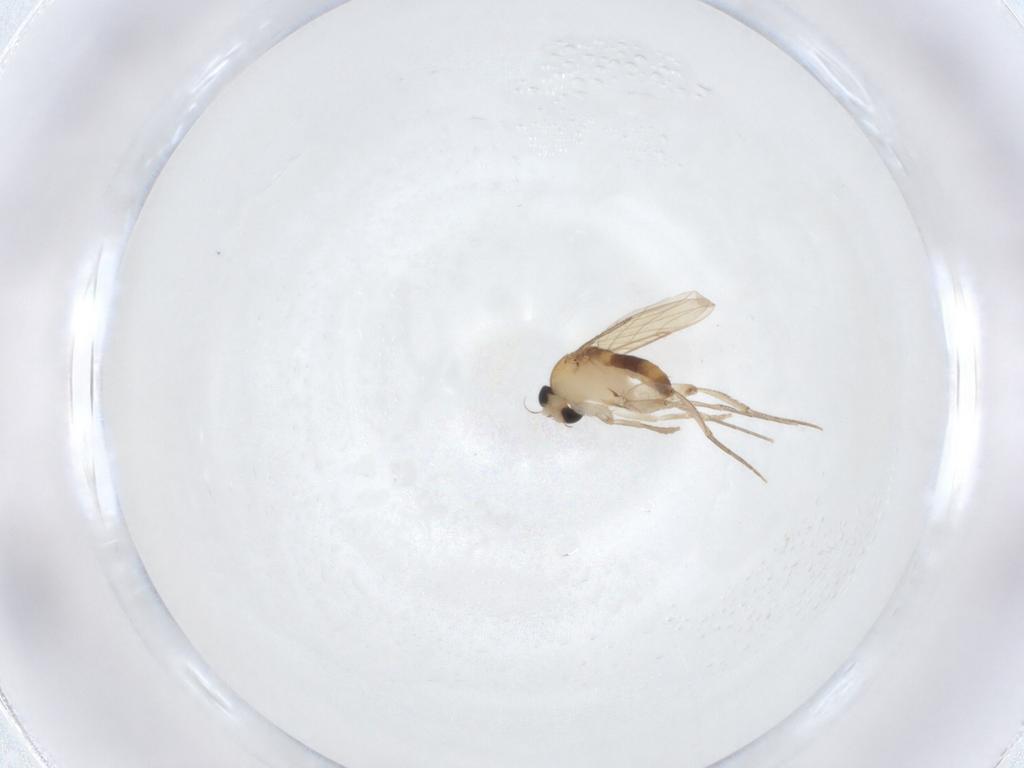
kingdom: Animalia
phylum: Arthropoda
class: Insecta
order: Diptera
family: Phoridae
